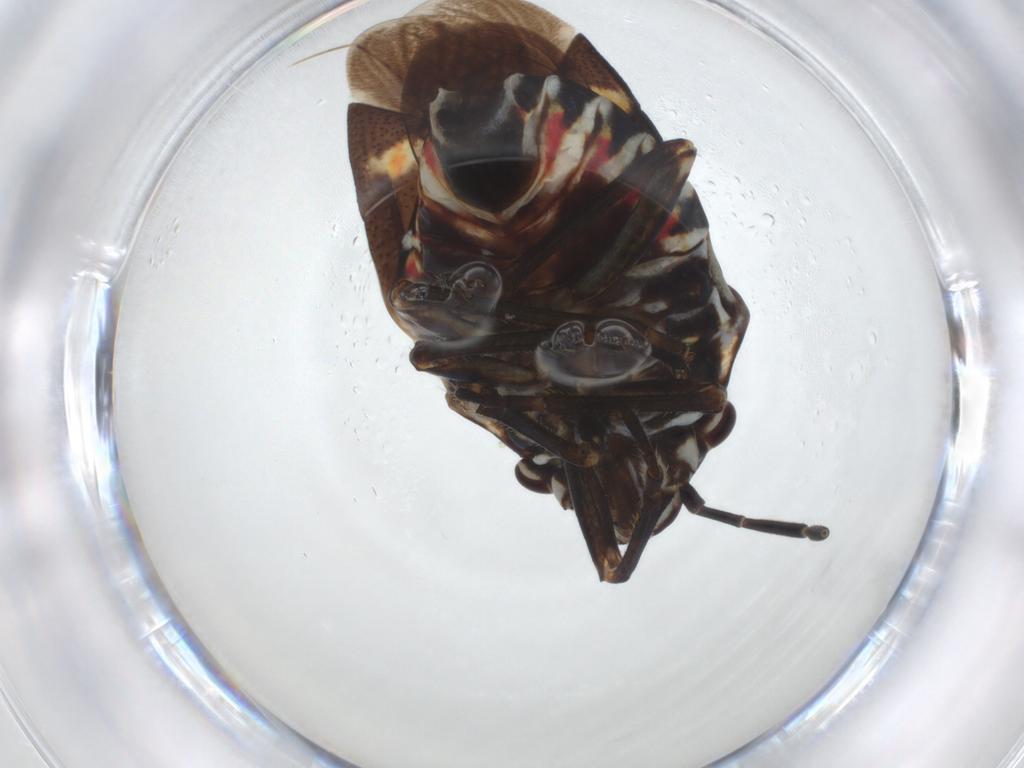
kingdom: Animalia
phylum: Arthropoda
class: Insecta
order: Hemiptera
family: Pentatomidae
